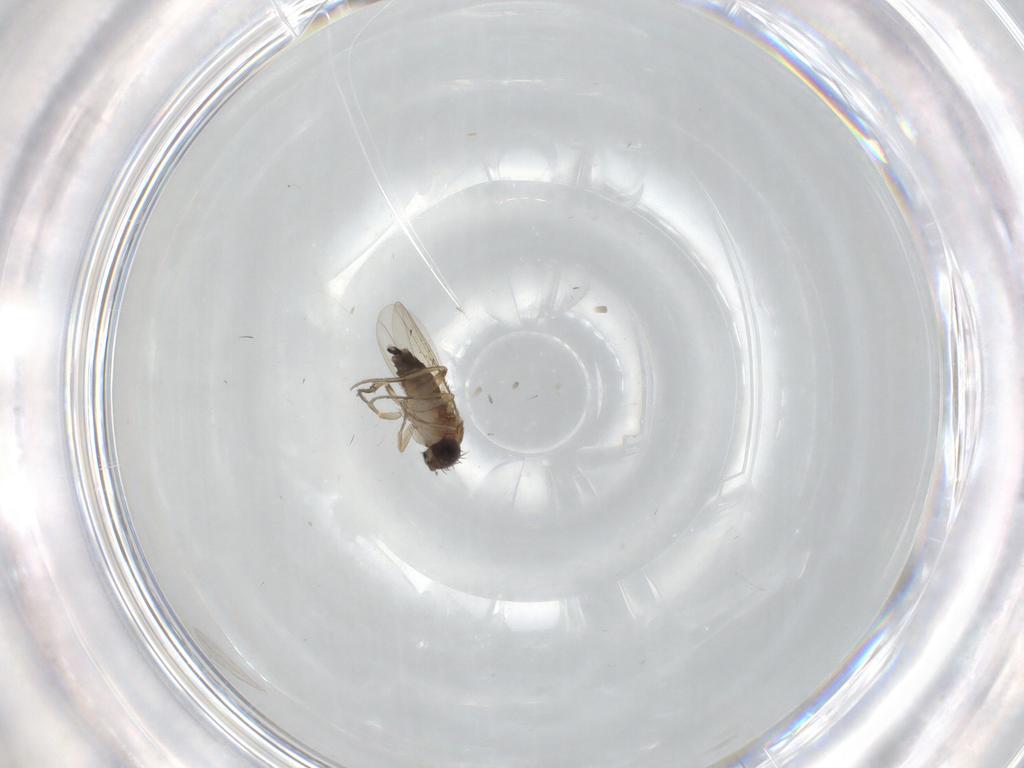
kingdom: Animalia
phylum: Arthropoda
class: Insecta
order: Diptera
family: Phoridae
